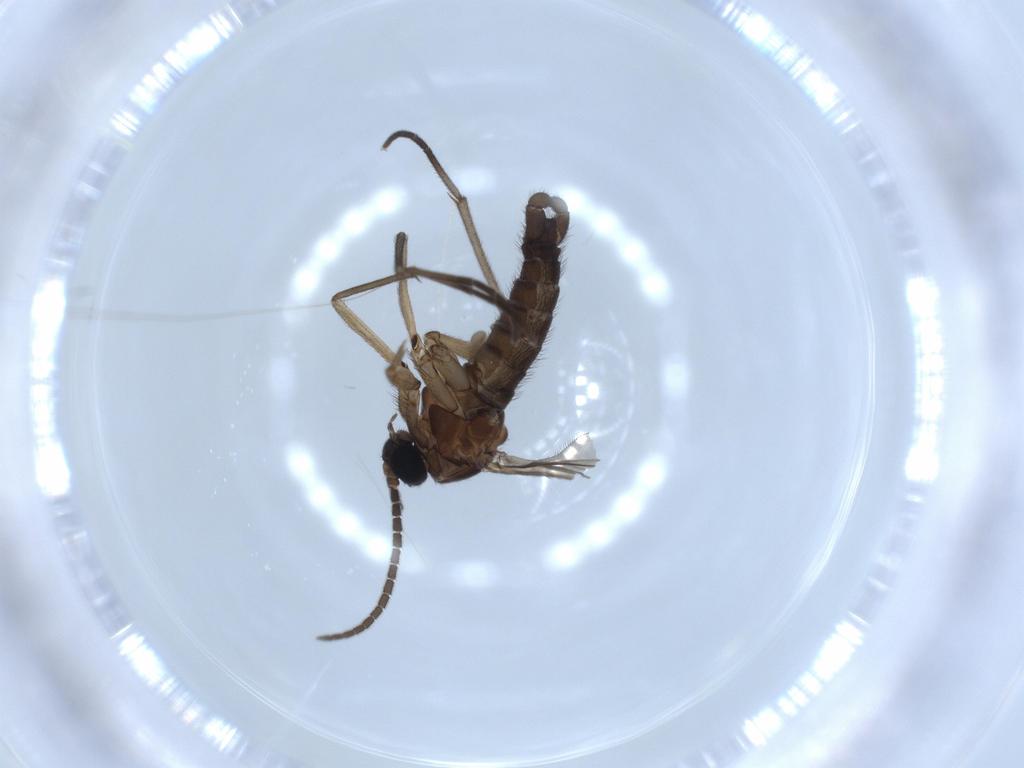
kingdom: Animalia
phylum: Arthropoda
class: Insecta
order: Diptera
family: Sciaridae
